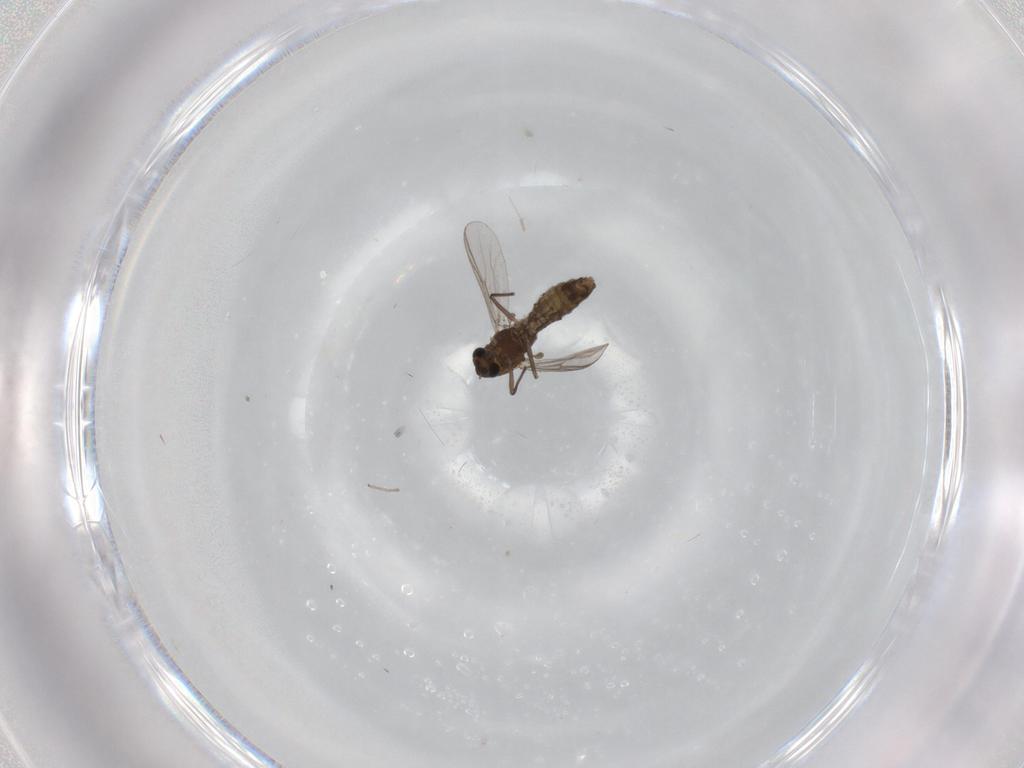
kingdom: Animalia
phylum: Arthropoda
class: Insecta
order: Diptera
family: Chironomidae
